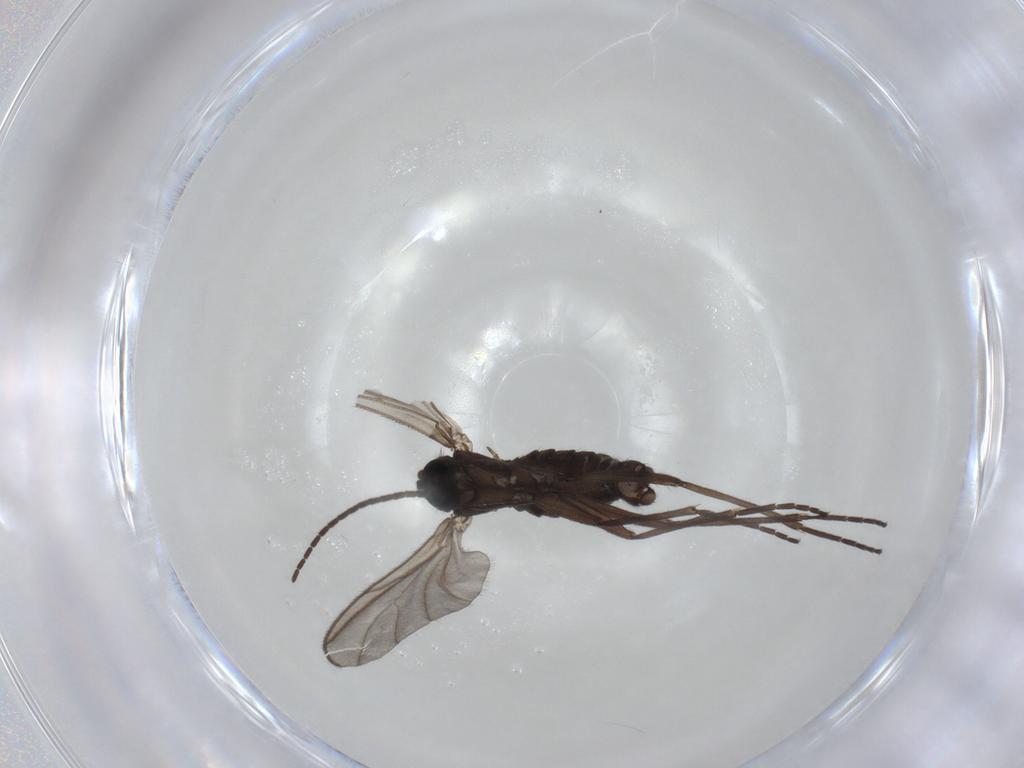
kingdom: Animalia
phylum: Arthropoda
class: Insecta
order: Diptera
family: Sciaridae
